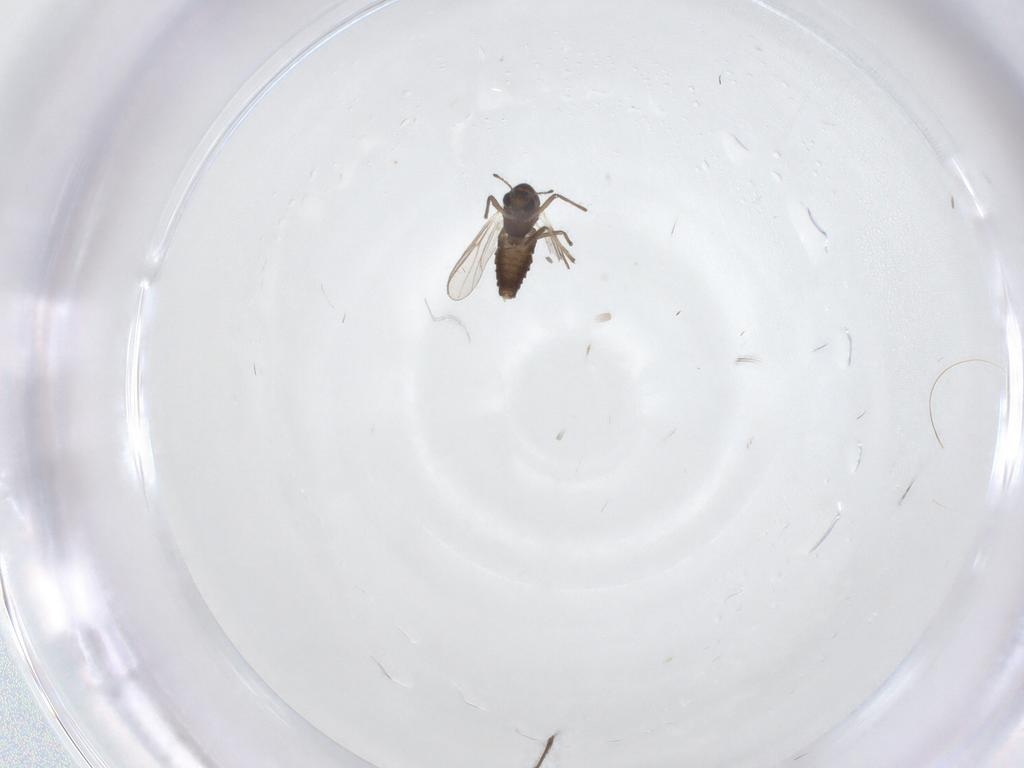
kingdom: Animalia
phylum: Arthropoda
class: Insecta
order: Diptera
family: Chironomidae
